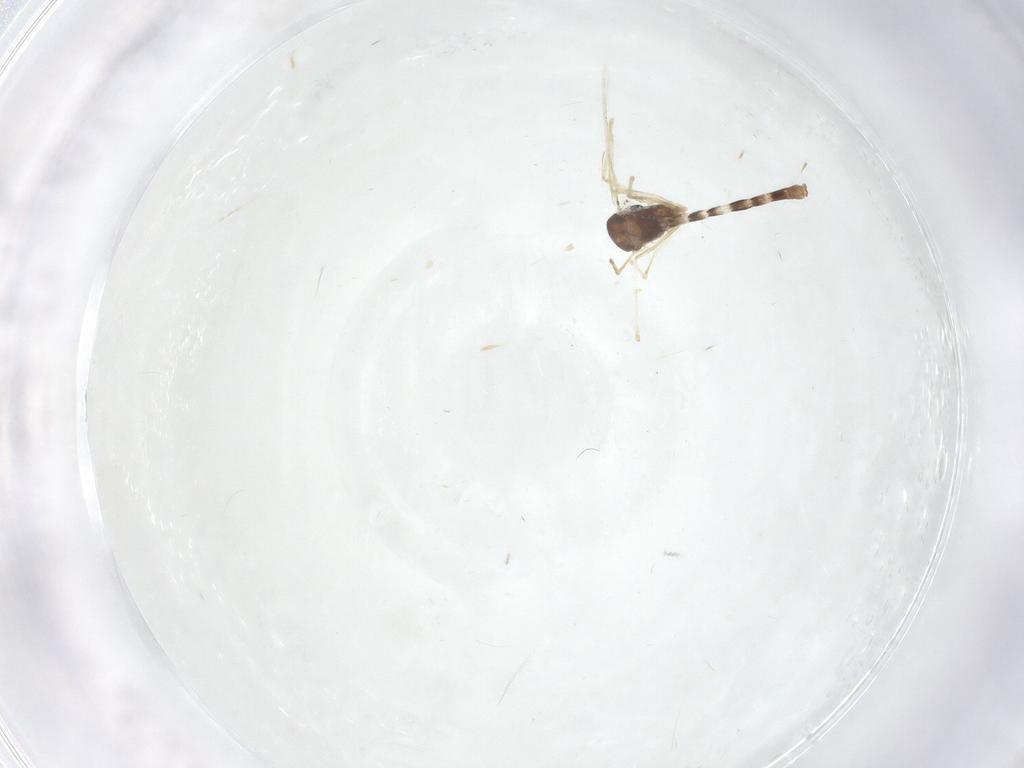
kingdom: Animalia
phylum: Arthropoda
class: Insecta
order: Diptera
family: Chironomidae
